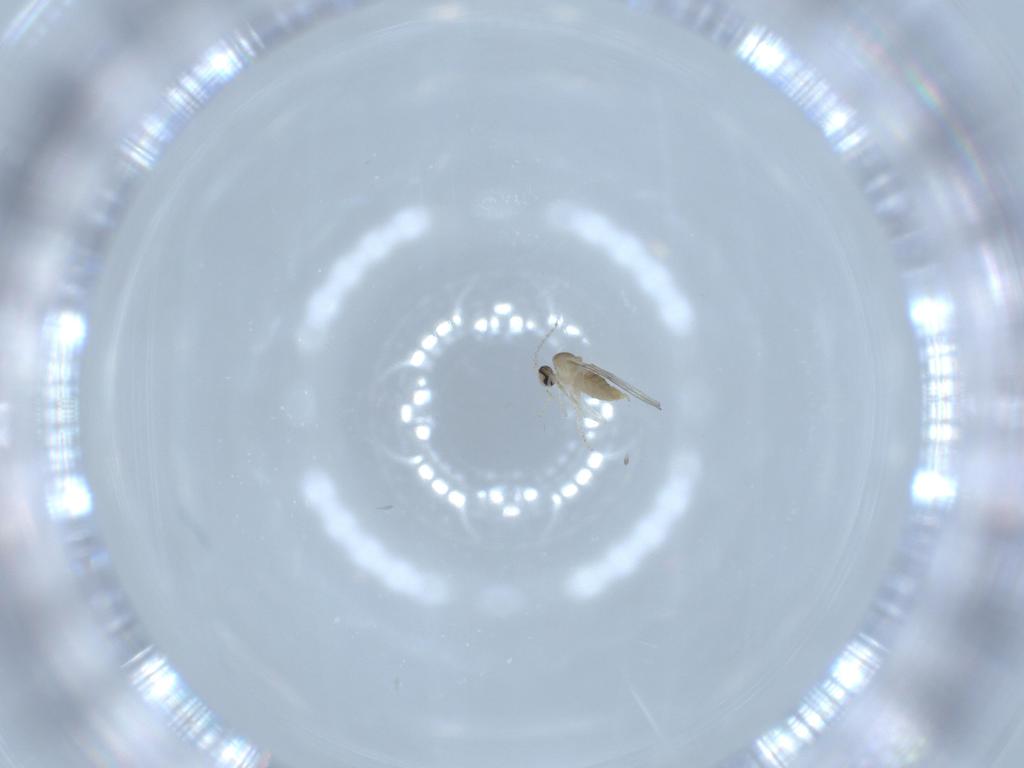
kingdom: Animalia
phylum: Arthropoda
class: Insecta
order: Diptera
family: Cecidomyiidae
